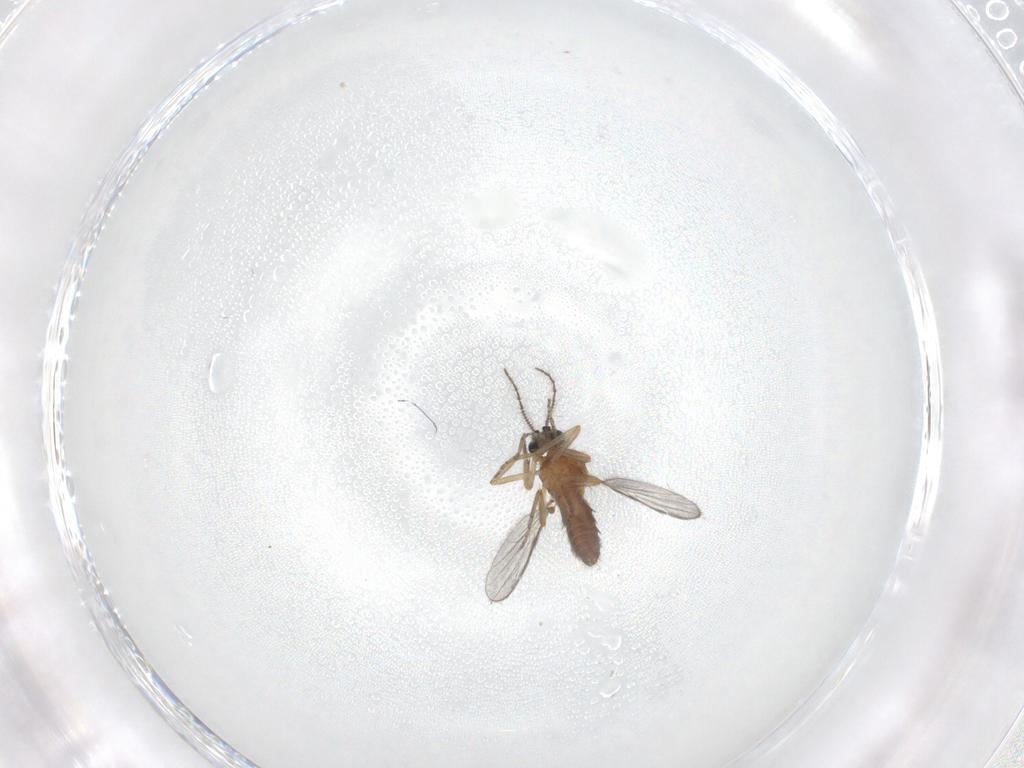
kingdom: Animalia
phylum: Arthropoda
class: Insecta
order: Diptera
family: Ceratopogonidae
